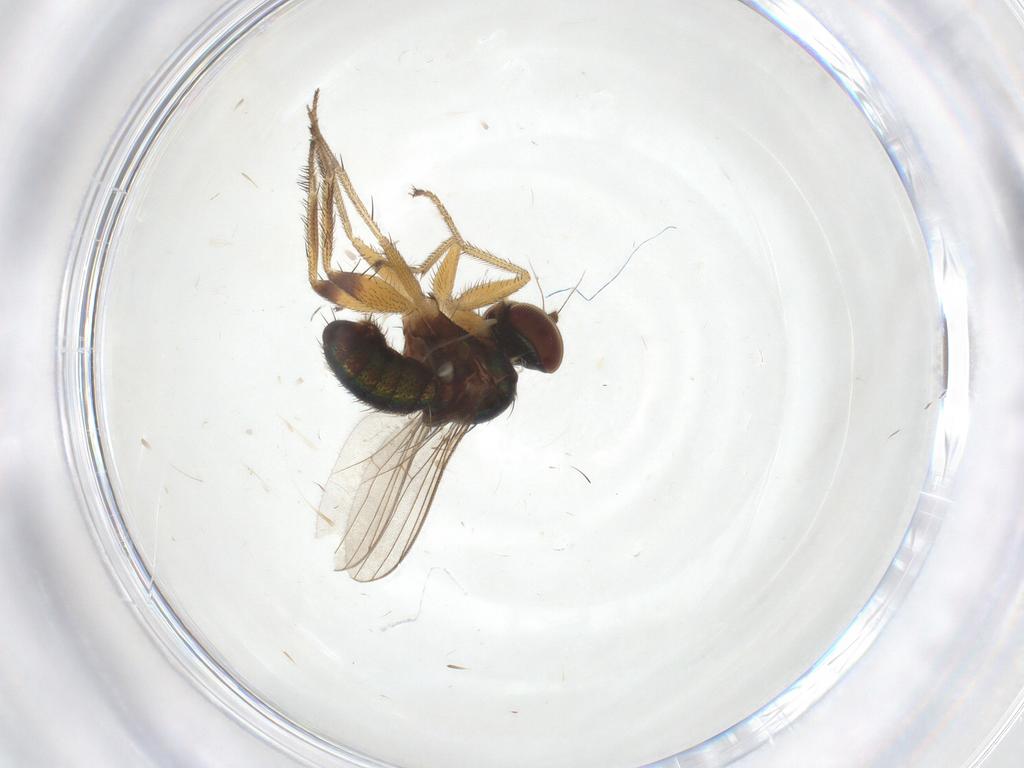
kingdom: Animalia
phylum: Arthropoda
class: Insecta
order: Diptera
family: Dolichopodidae
